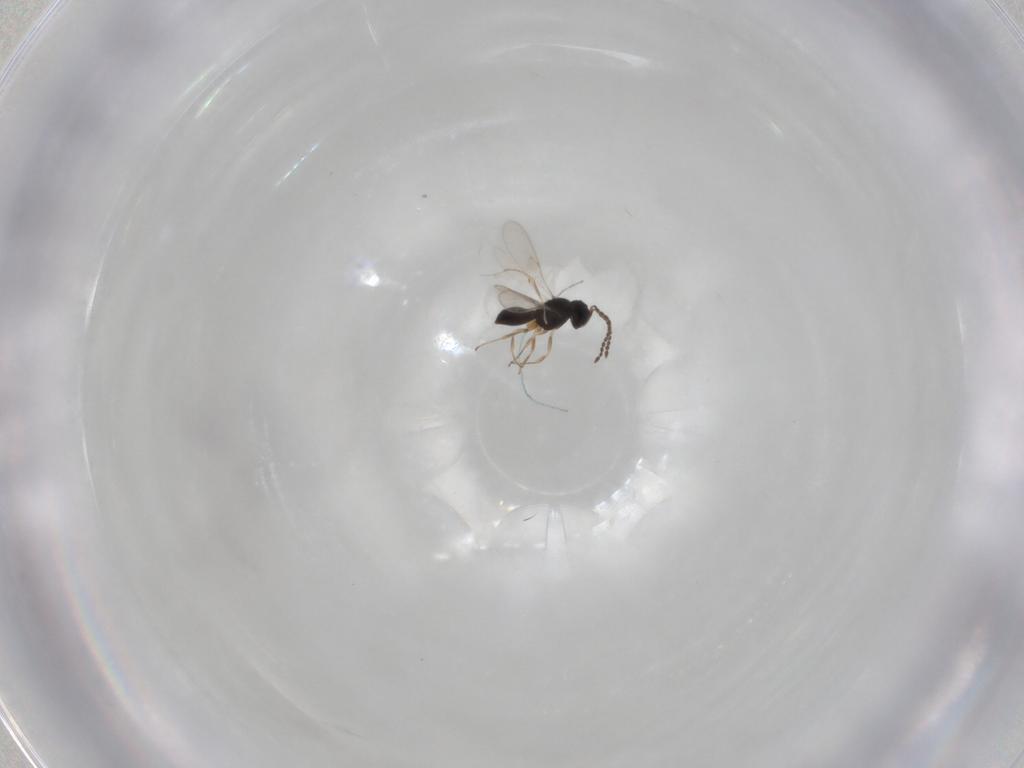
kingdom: Animalia
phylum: Arthropoda
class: Insecta
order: Hymenoptera
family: Scelionidae
